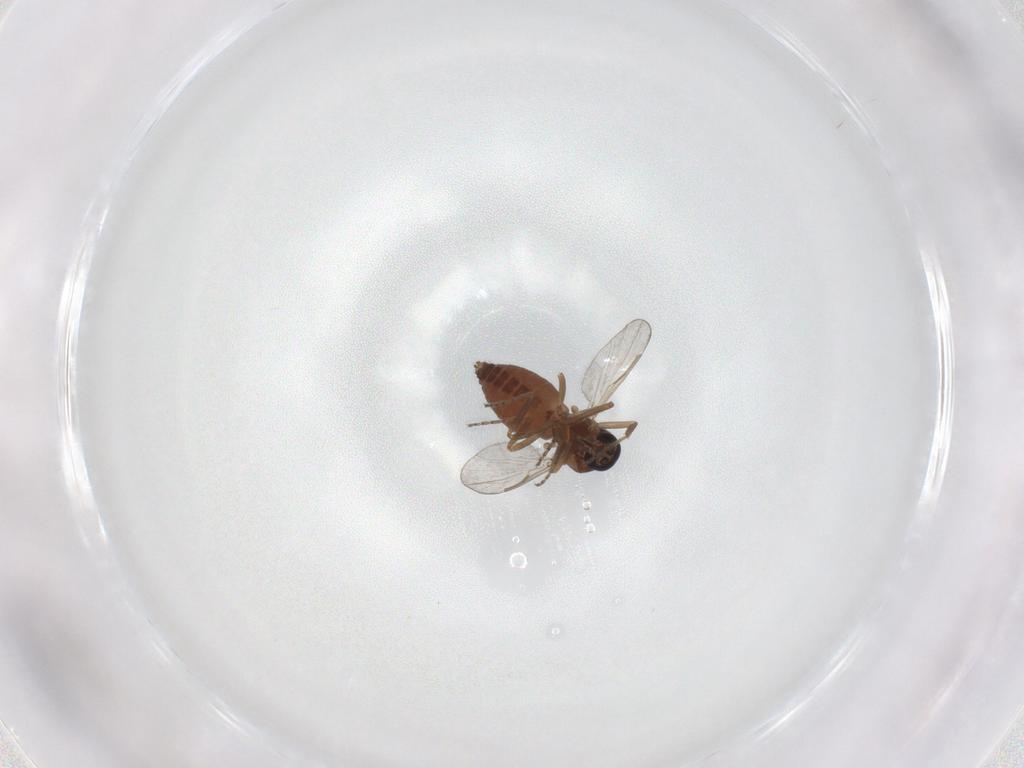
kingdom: Animalia
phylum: Arthropoda
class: Insecta
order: Diptera
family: Ceratopogonidae
